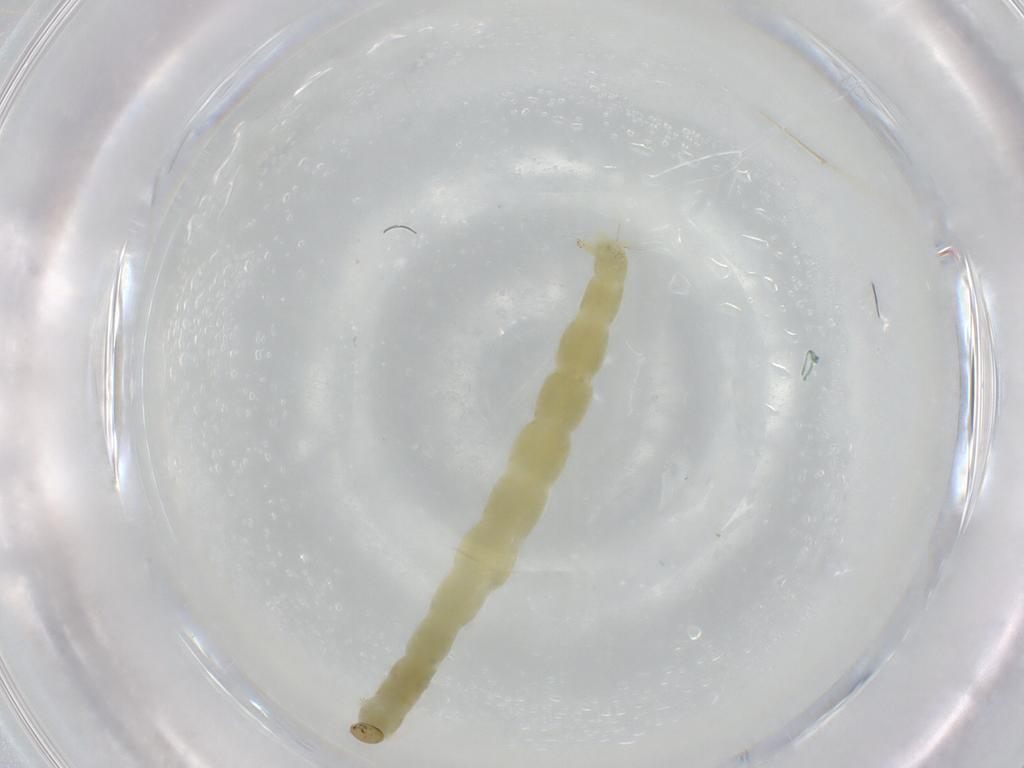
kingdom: Animalia
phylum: Arthropoda
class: Insecta
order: Diptera
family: Chironomidae
